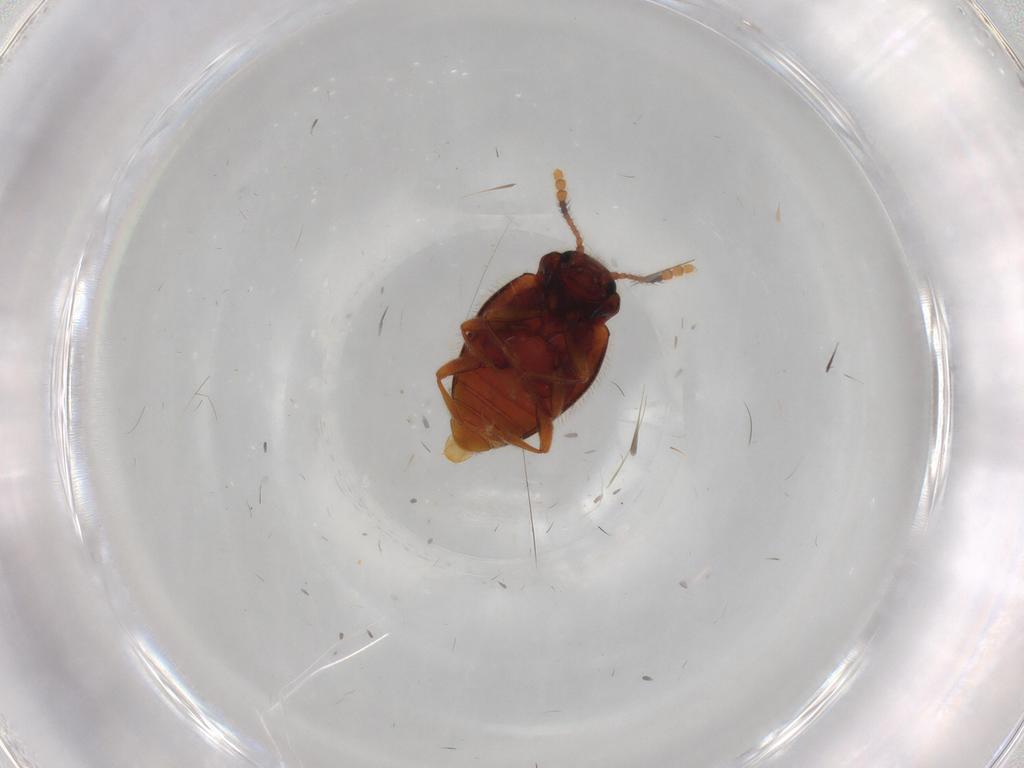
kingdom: Animalia
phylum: Arthropoda
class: Insecta
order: Coleoptera
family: Erotylidae
